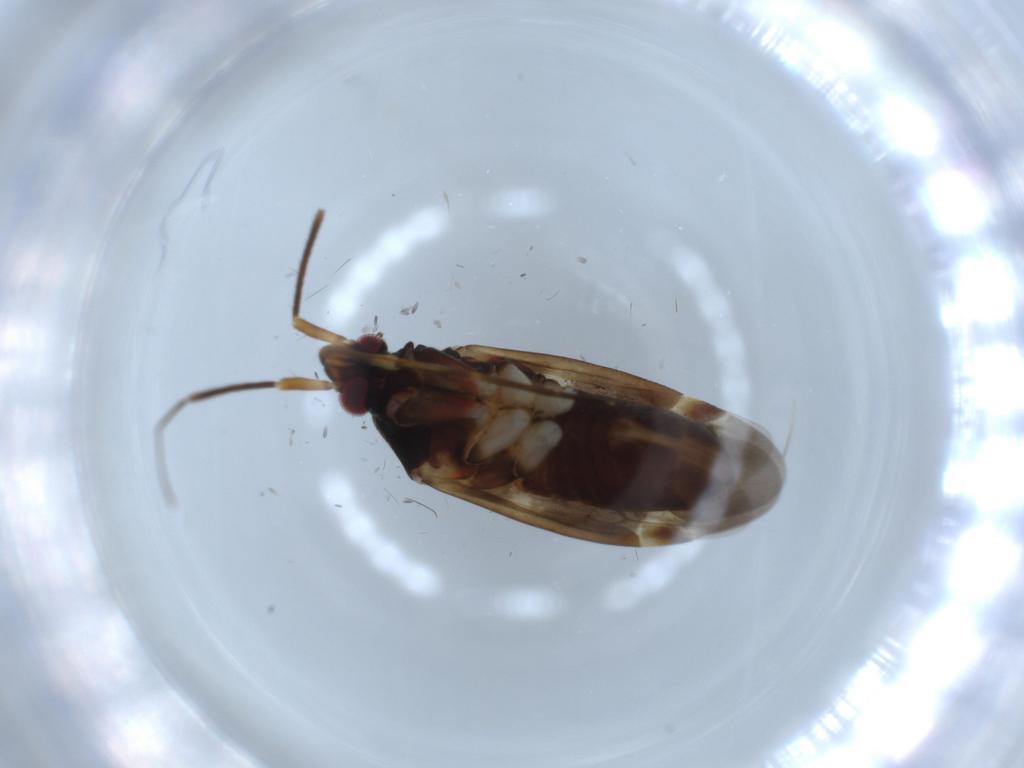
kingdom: Animalia
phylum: Arthropoda
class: Insecta
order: Hemiptera
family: Miridae
